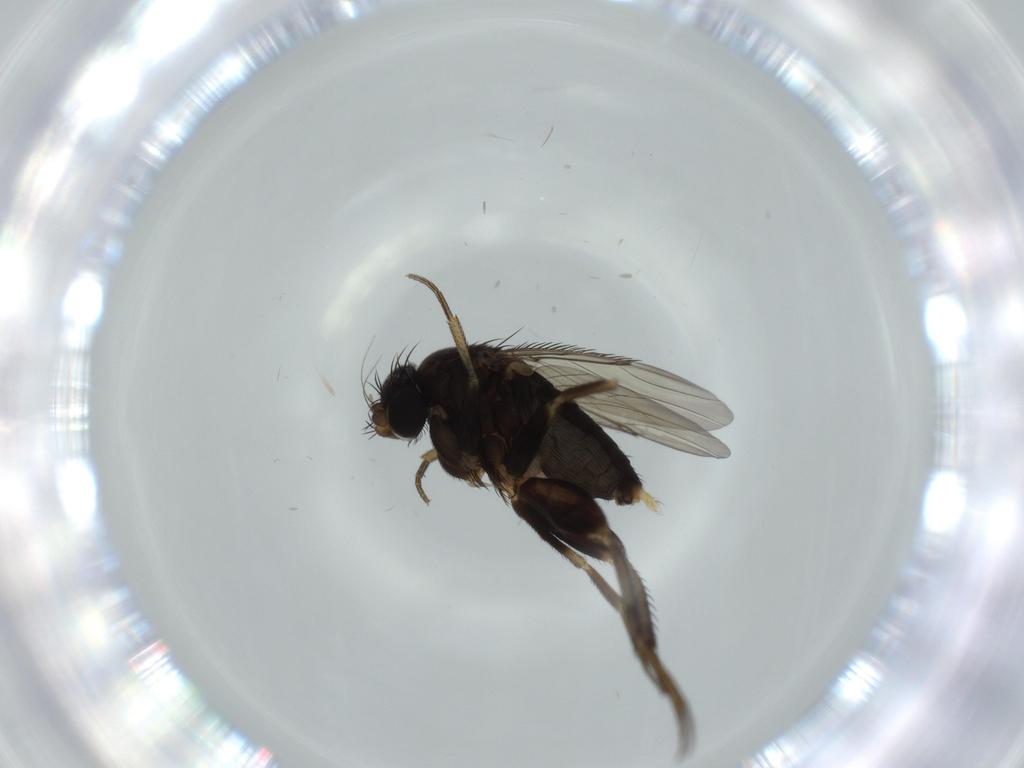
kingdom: Animalia
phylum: Arthropoda
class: Insecta
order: Diptera
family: Phoridae
